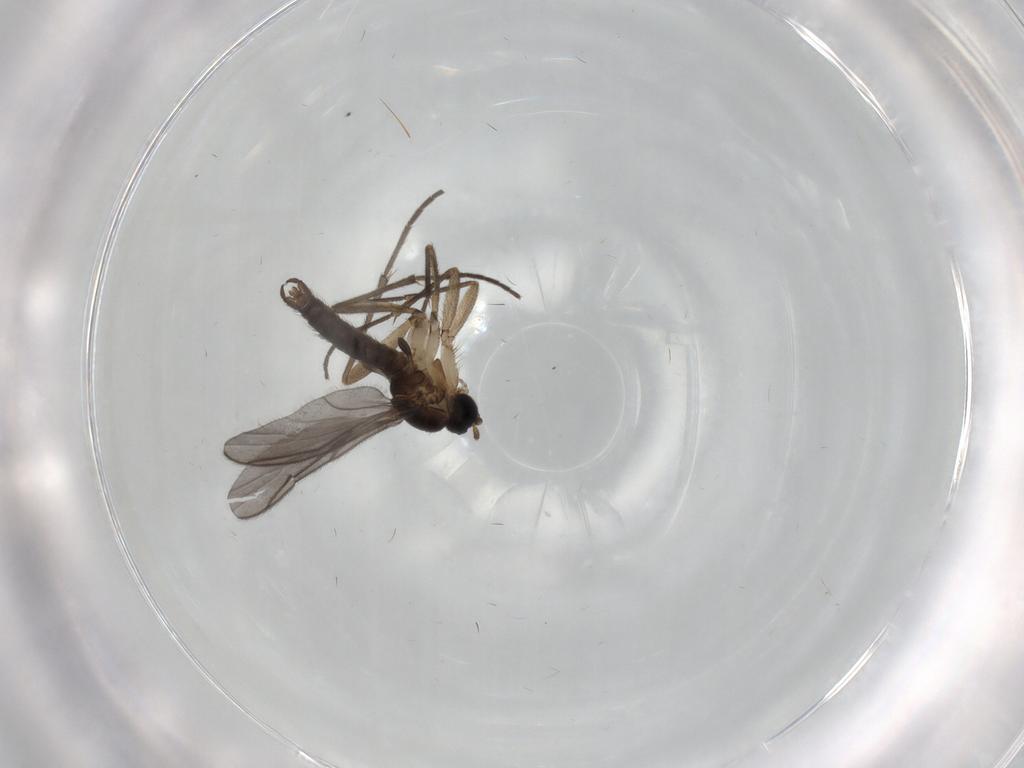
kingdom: Animalia
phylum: Arthropoda
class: Insecta
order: Diptera
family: Sciaridae
